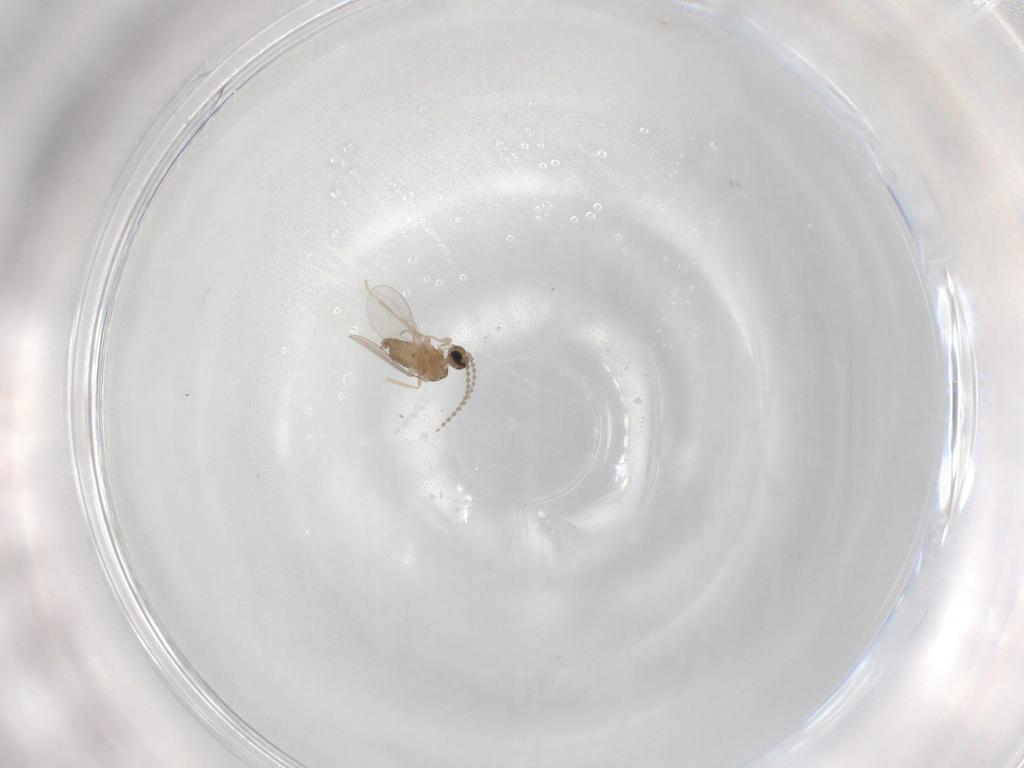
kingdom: Animalia
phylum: Arthropoda
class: Insecta
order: Diptera
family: Cecidomyiidae
